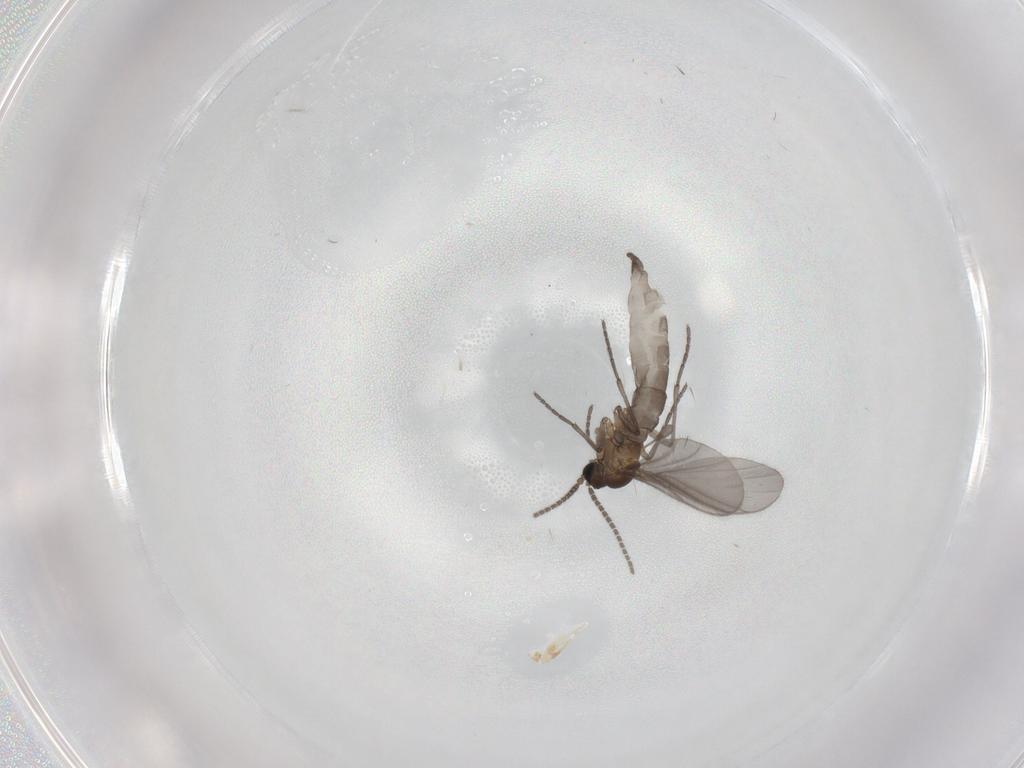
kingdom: Animalia
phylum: Arthropoda
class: Insecta
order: Diptera
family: Sciaridae
